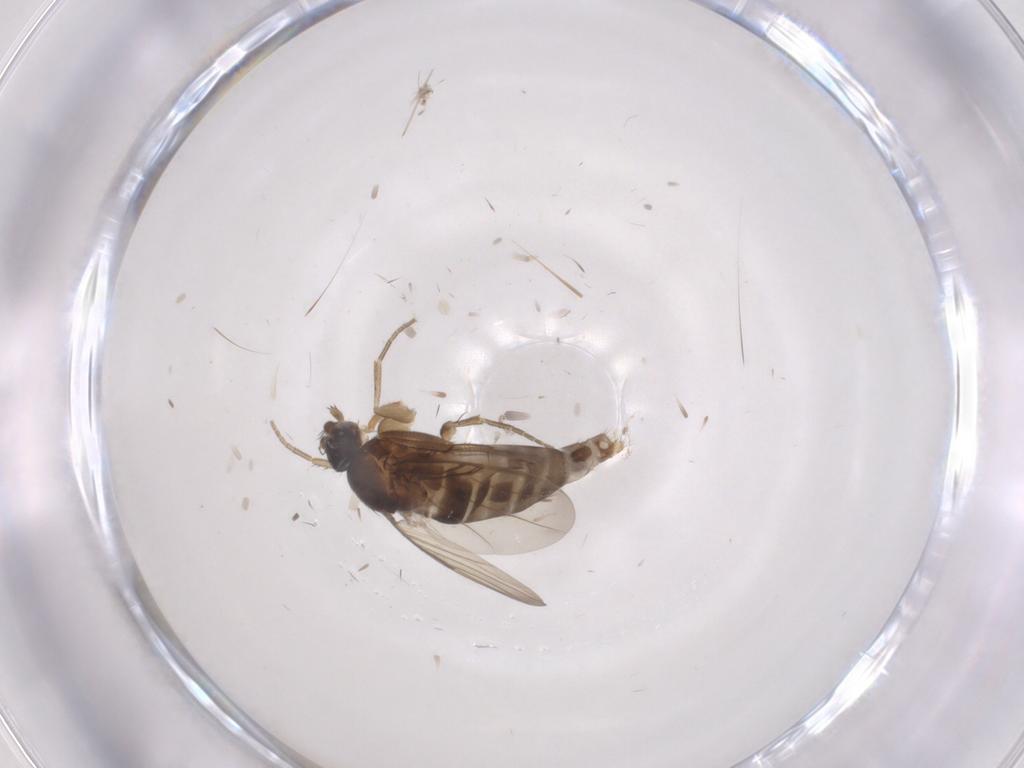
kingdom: Animalia
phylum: Arthropoda
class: Insecta
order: Diptera
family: Phoridae
